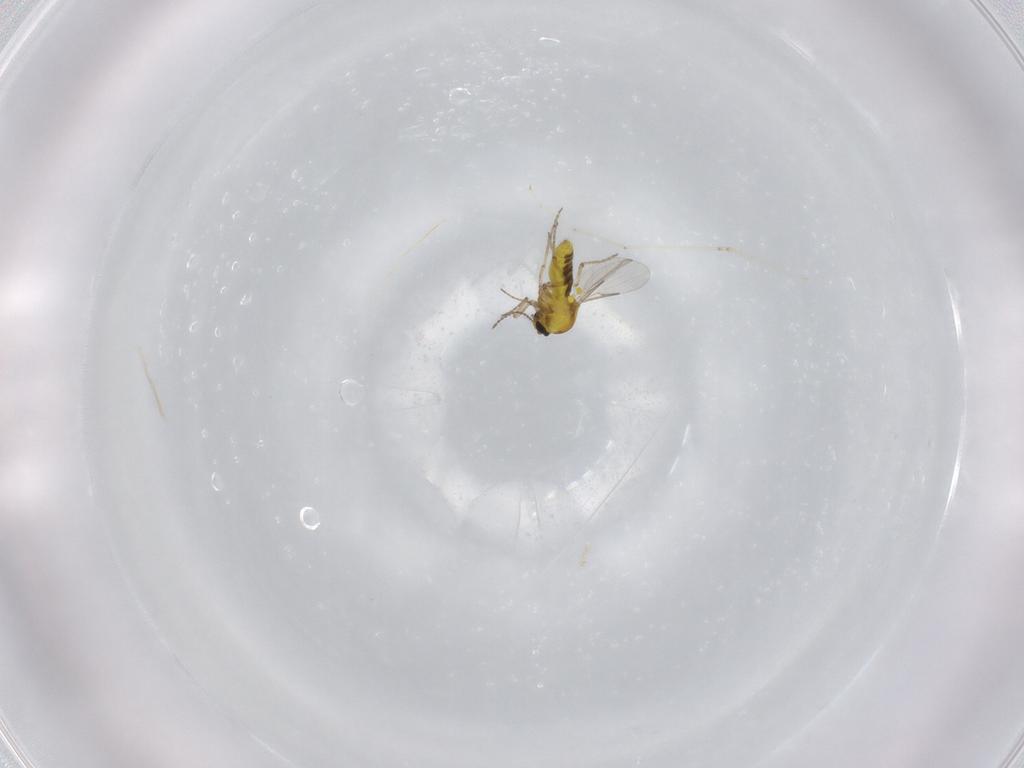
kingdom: Animalia
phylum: Arthropoda
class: Insecta
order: Diptera
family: Cecidomyiidae
